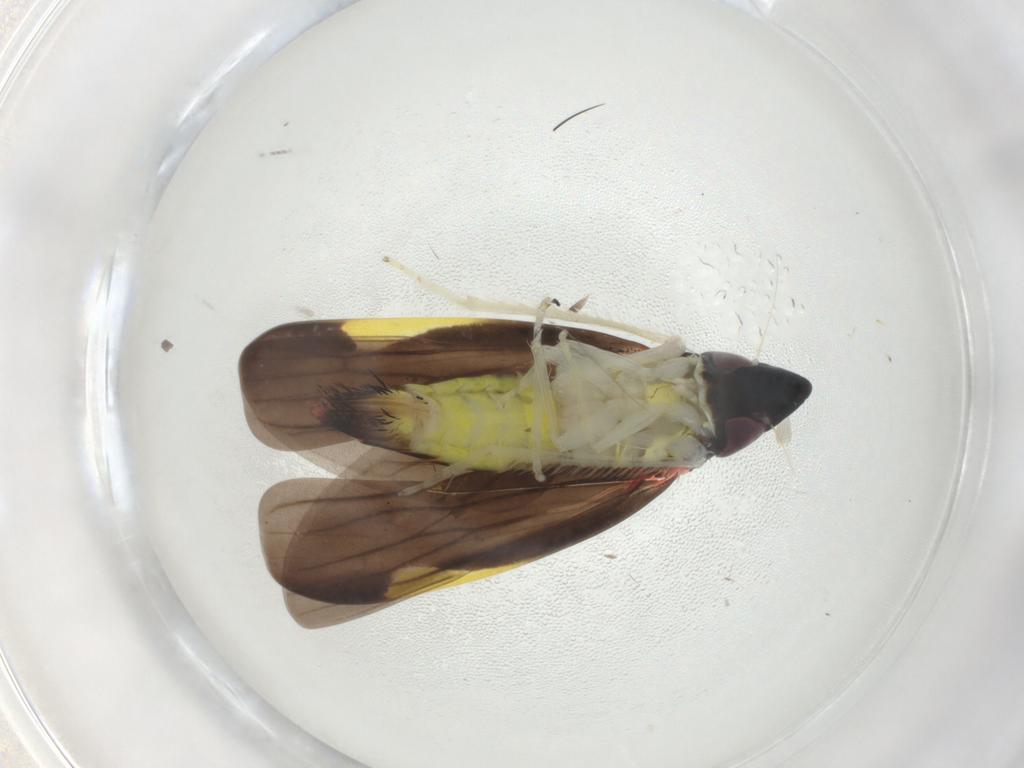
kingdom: Animalia
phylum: Arthropoda
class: Insecta
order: Hemiptera
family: Cicadellidae
